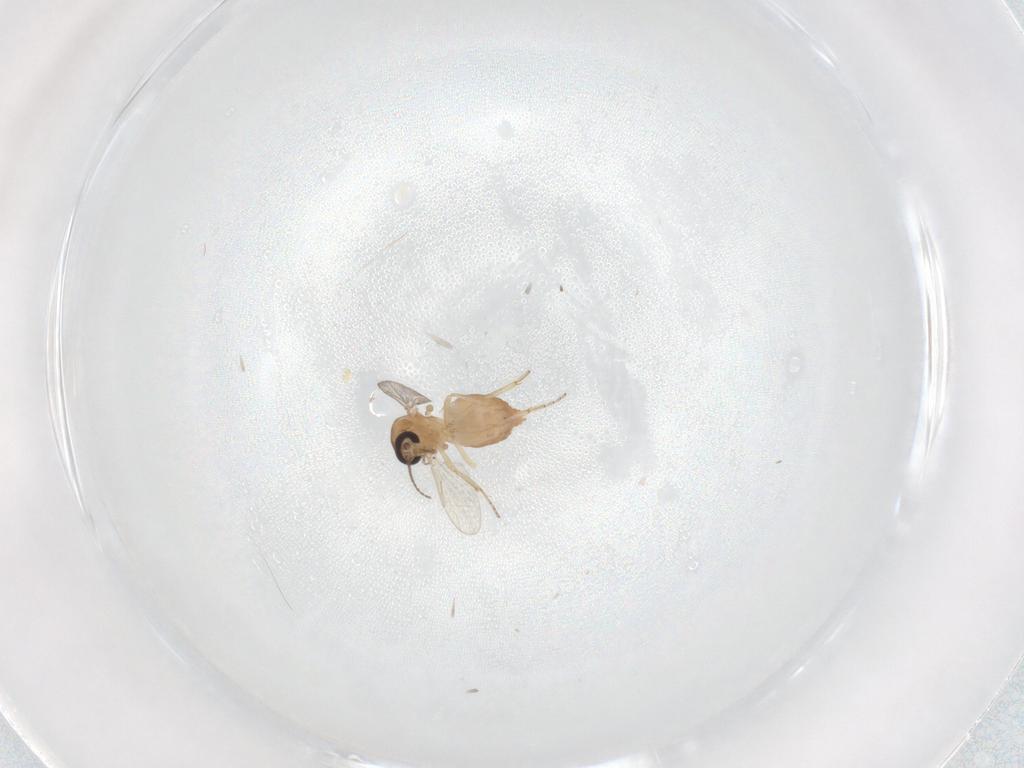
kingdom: Animalia
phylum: Arthropoda
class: Insecta
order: Diptera
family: Ceratopogonidae
